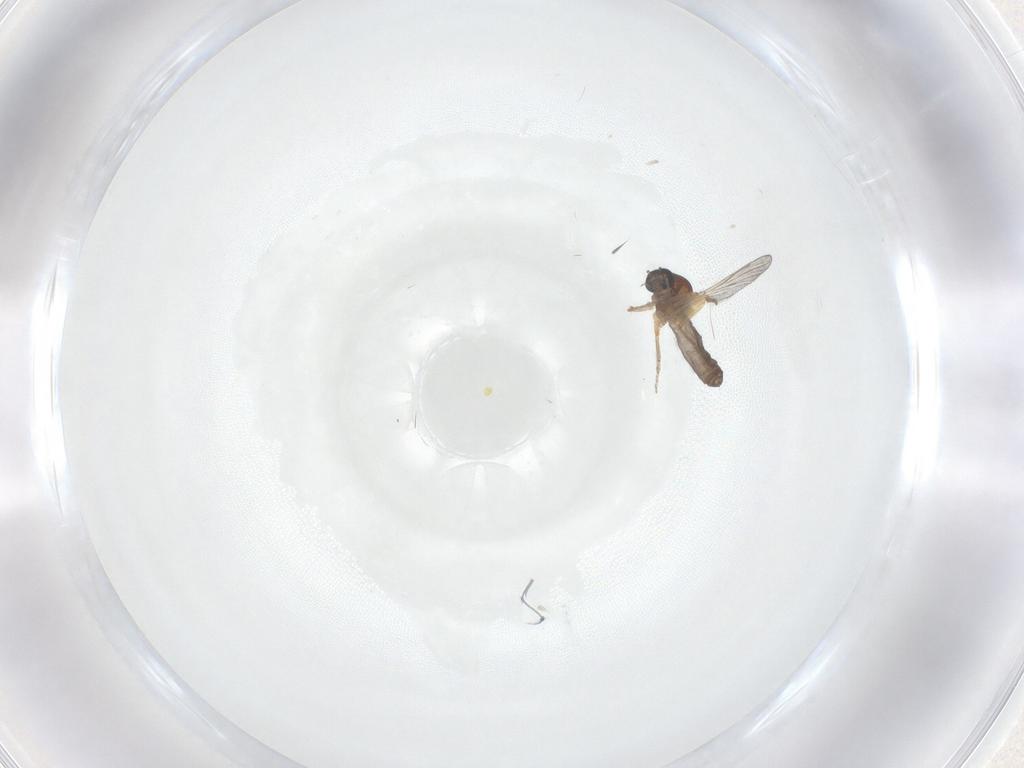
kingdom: Animalia
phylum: Arthropoda
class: Insecta
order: Diptera
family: Ceratopogonidae
